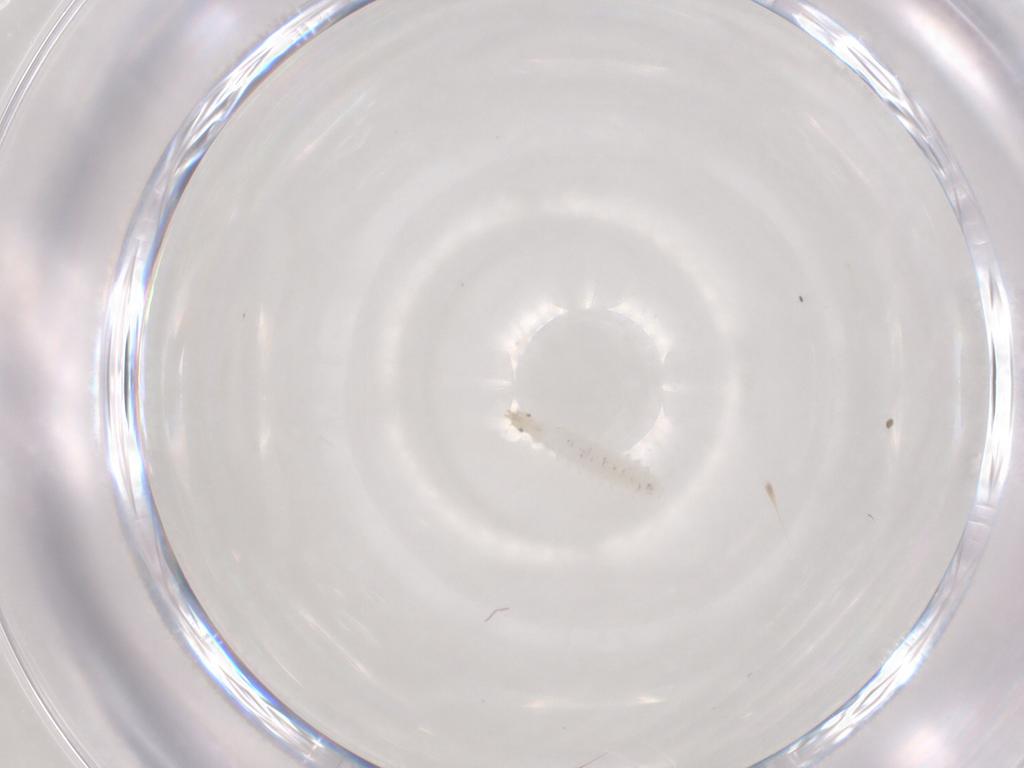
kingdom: Animalia
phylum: Arthropoda
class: Insecta
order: Diptera
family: Stratiomyidae
